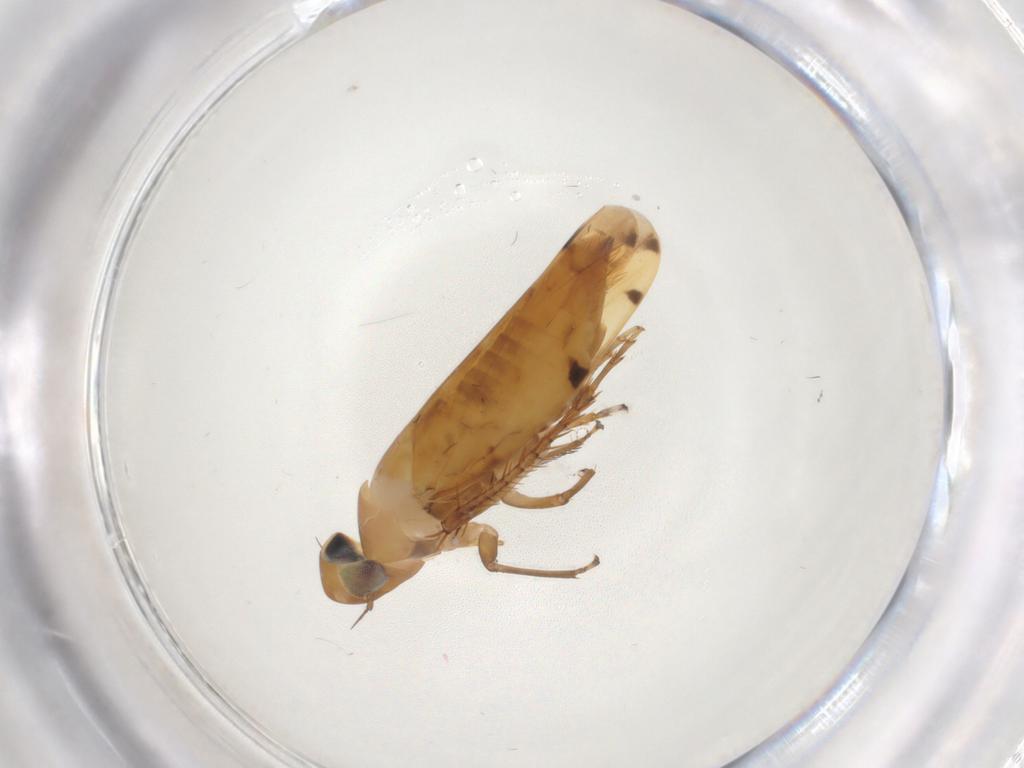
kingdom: Animalia
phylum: Arthropoda
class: Insecta
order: Hemiptera
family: Cicadellidae
